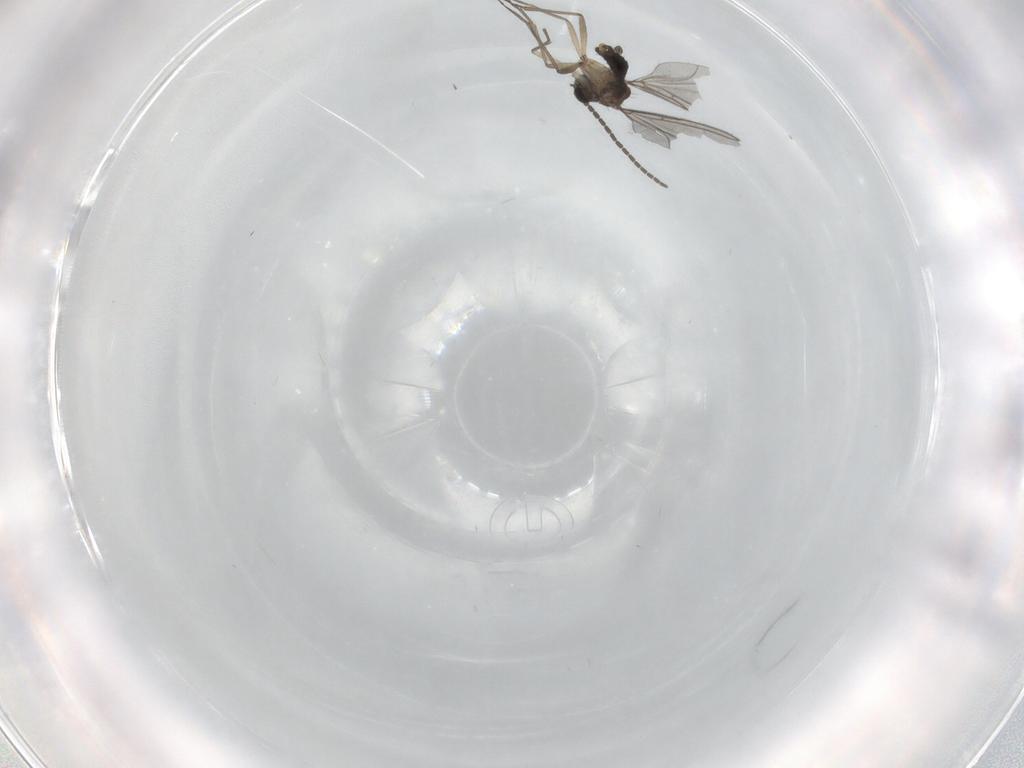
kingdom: Animalia
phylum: Arthropoda
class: Insecta
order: Diptera
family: Sciaridae
